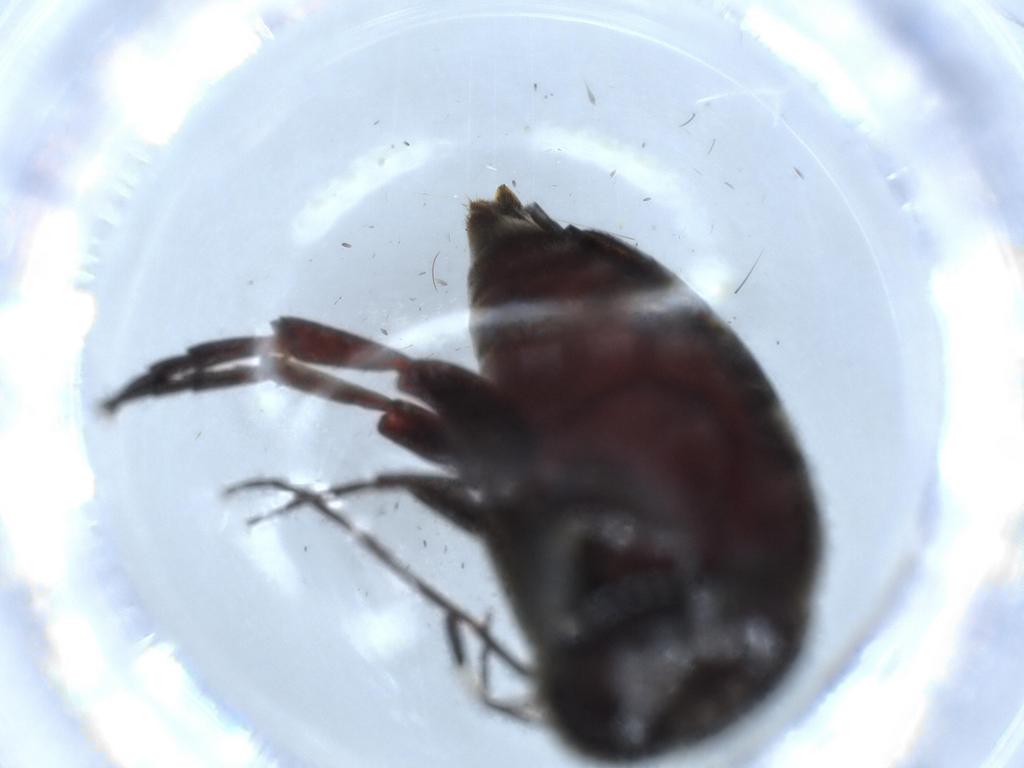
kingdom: Animalia
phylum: Arthropoda
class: Insecta
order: Coleoptera
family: Chrysomelidae
